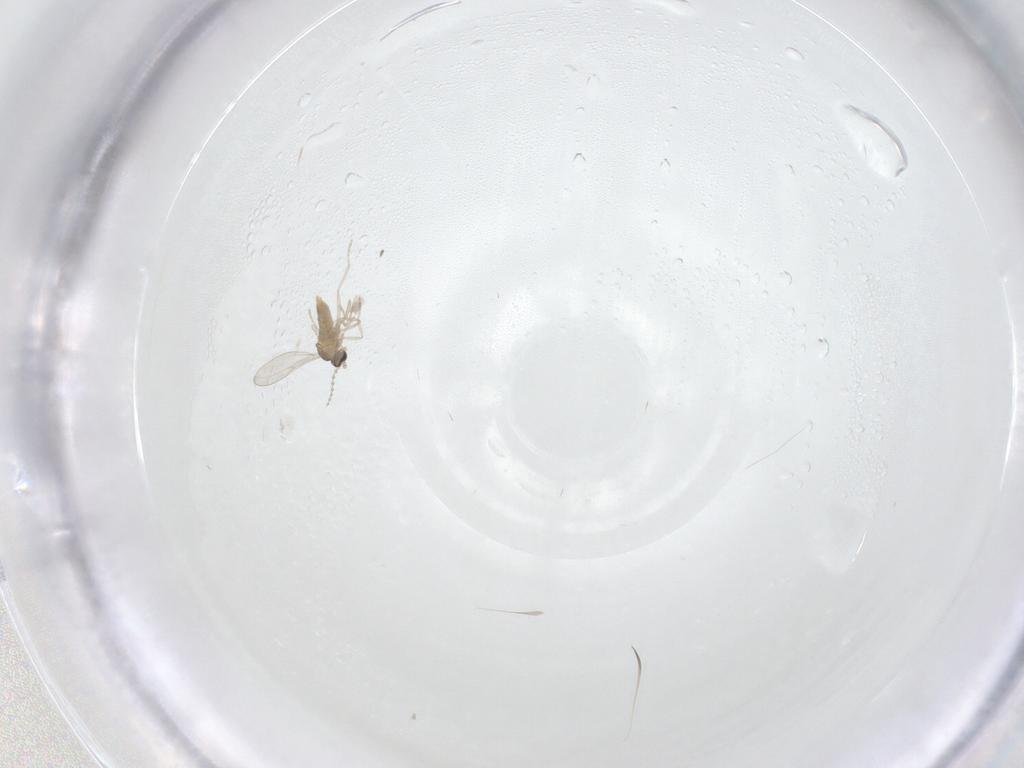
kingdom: Animalia
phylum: Arthropoda
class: Insecta
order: Diptera
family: Cecidomyiidae
